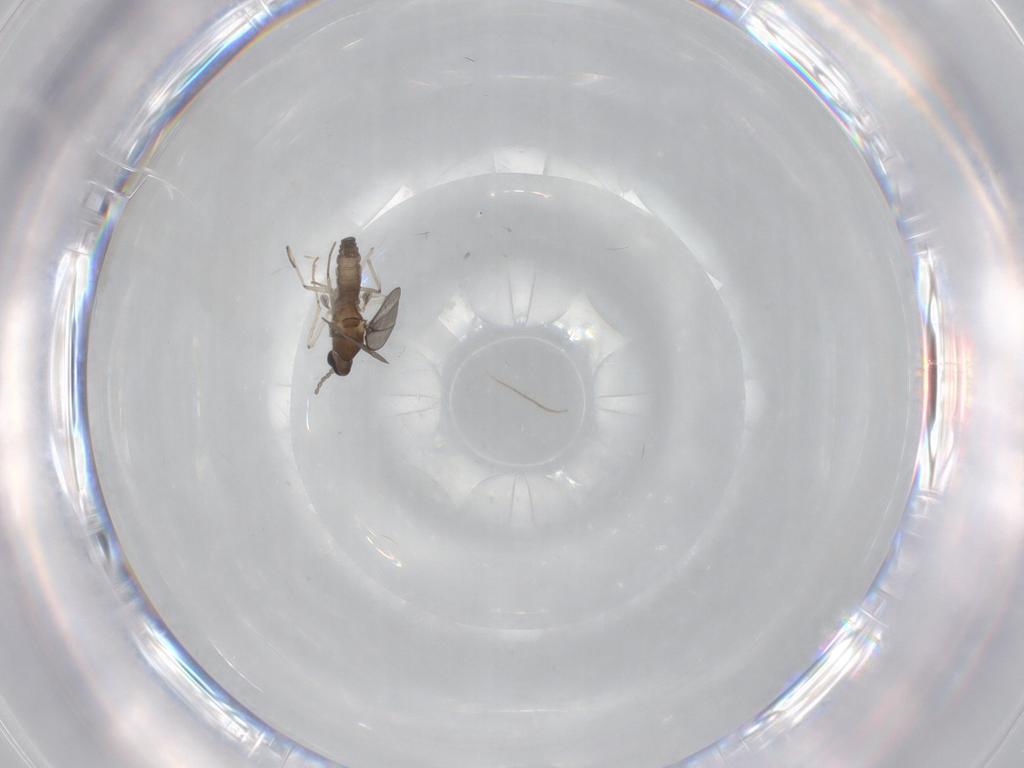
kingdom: Animalia
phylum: Arthropoda
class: Insecta
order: Diptera
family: Cecidomyiidae
